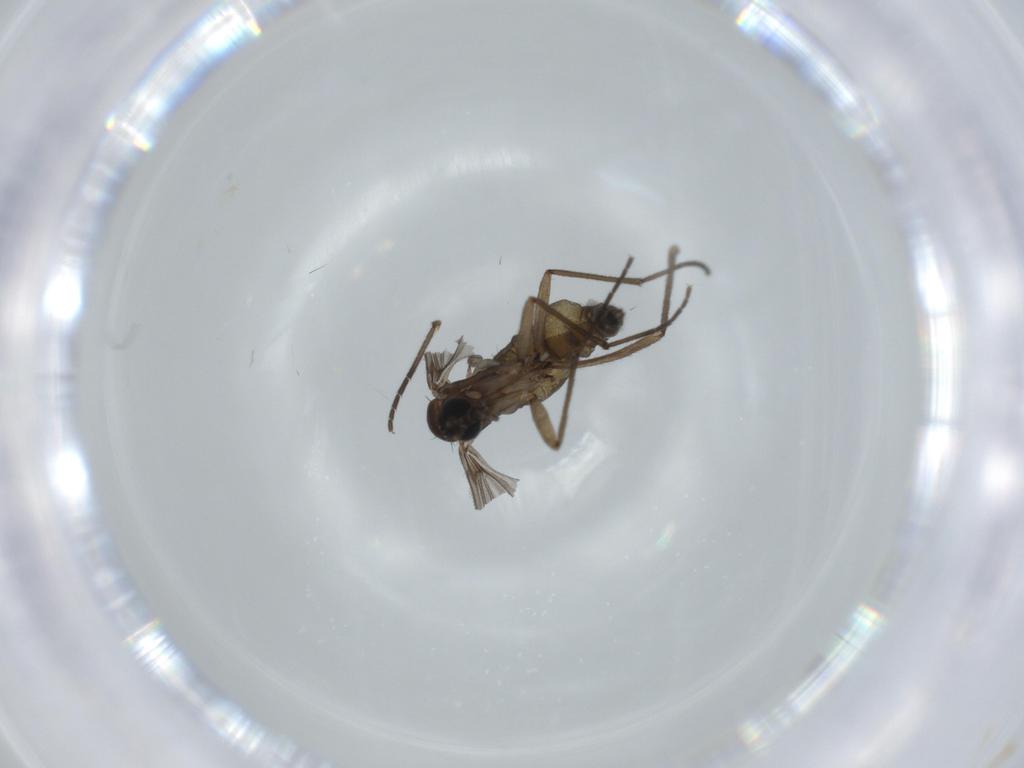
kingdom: Animalia
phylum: Arthropoda
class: Insecta
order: Diptera
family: Sciaridae
